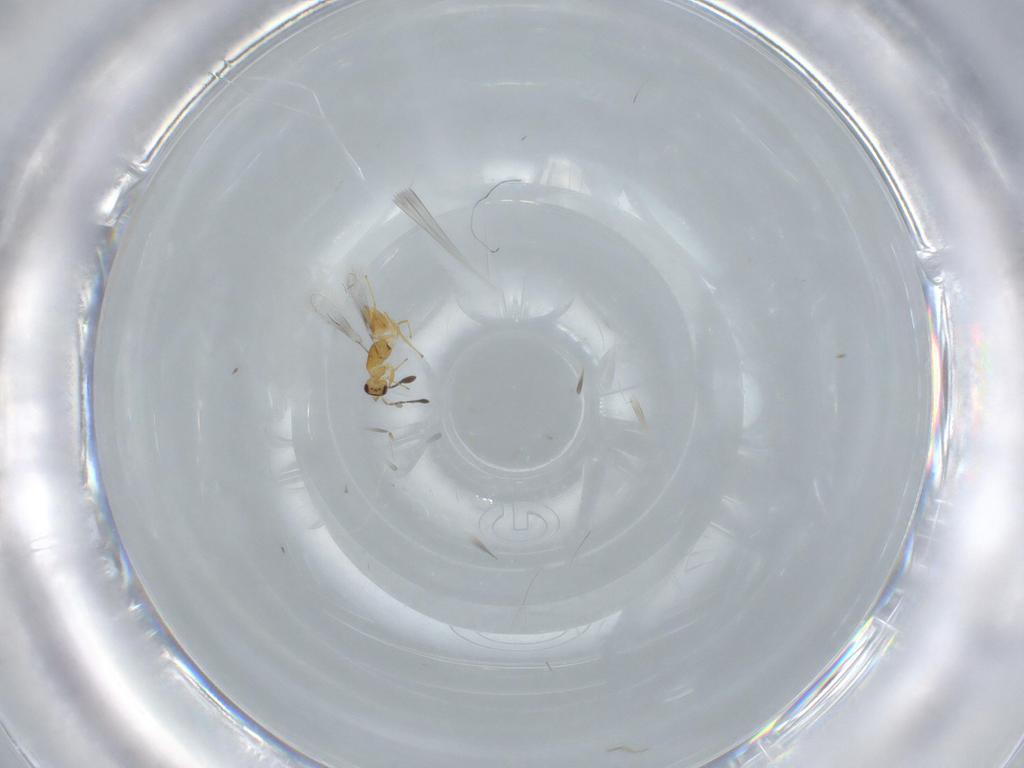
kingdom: Animalia
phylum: Arthropoda
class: Insecta
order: Hymenoptera
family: Mymaridae
